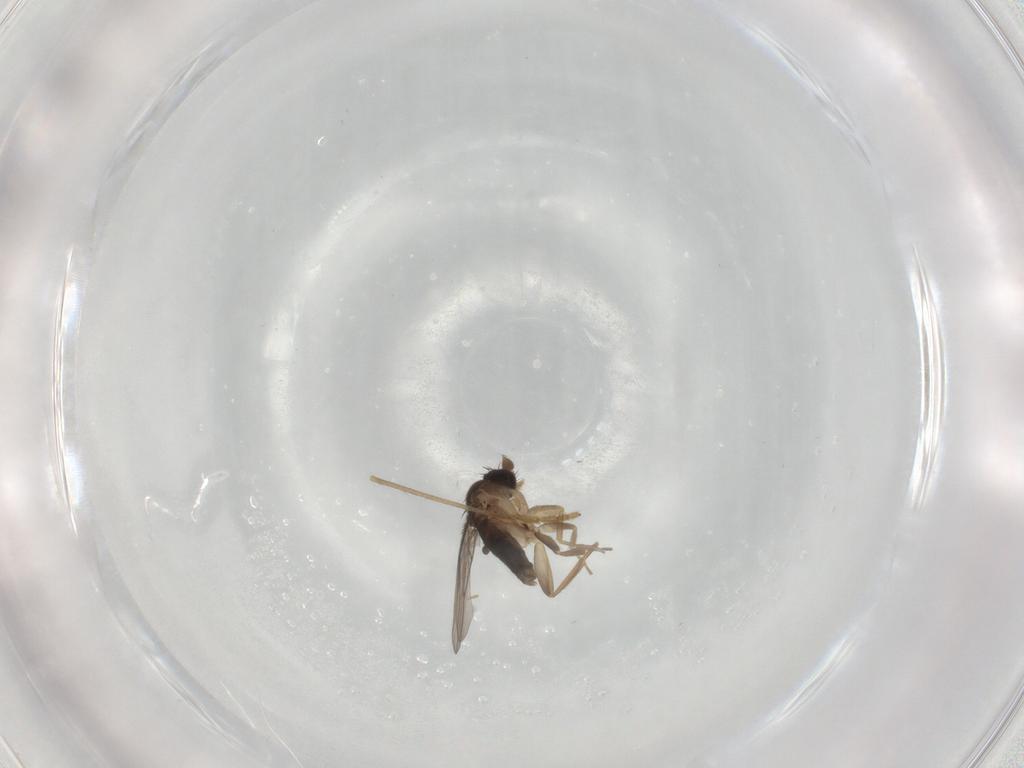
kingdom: Animalia
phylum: Arthropoda
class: Insecta
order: Diptera
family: Limoniidae
